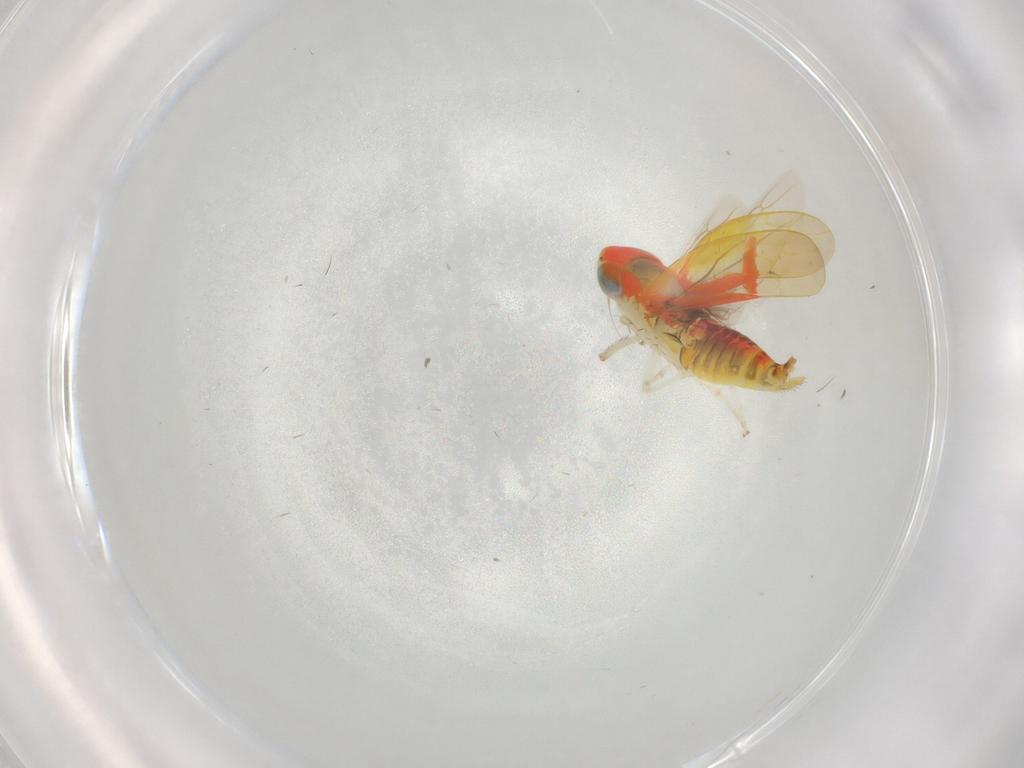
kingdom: Animalia
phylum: Arthropoda
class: Insecta
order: Hemiptera
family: Cicadellidae
